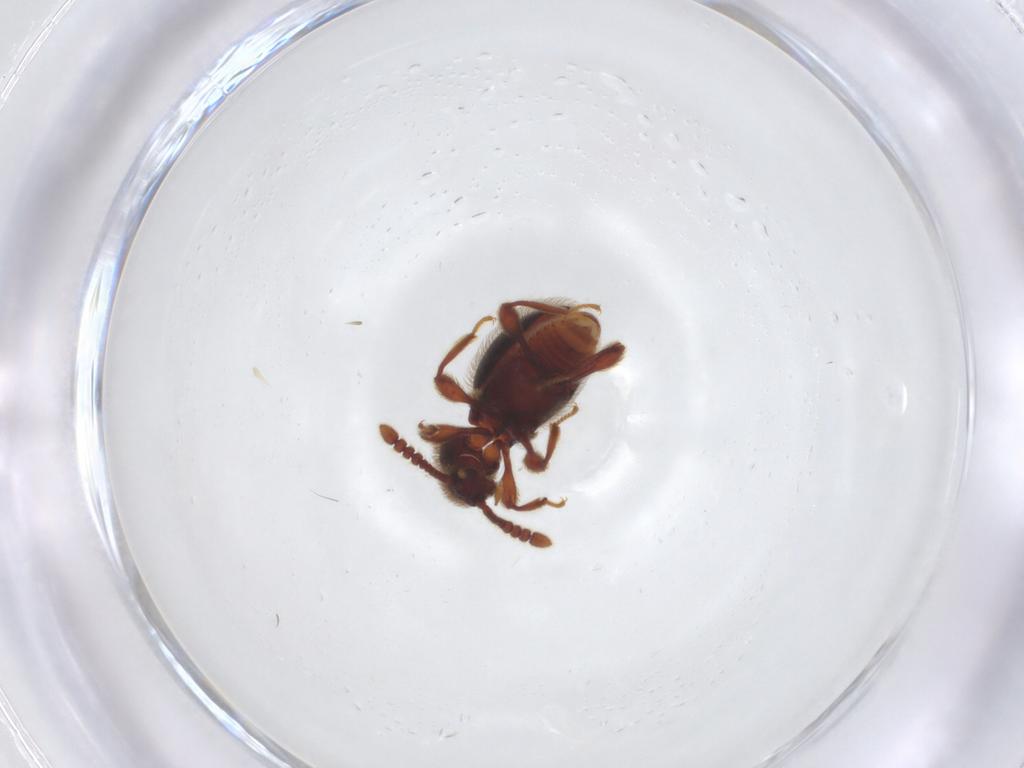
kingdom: Animalia
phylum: Arthropoda
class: Insecta
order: Coleoptera
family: Staphylinidae
